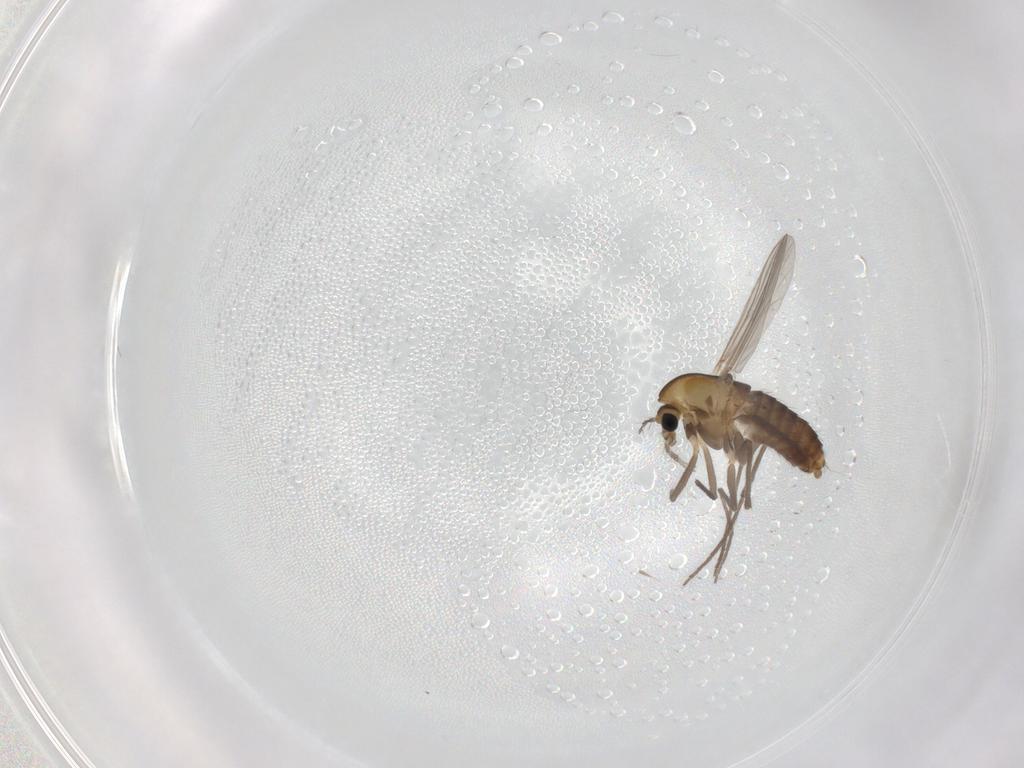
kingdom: Animalia
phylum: Arthropoda
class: Insecta
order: Diptera
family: Chironomidae
